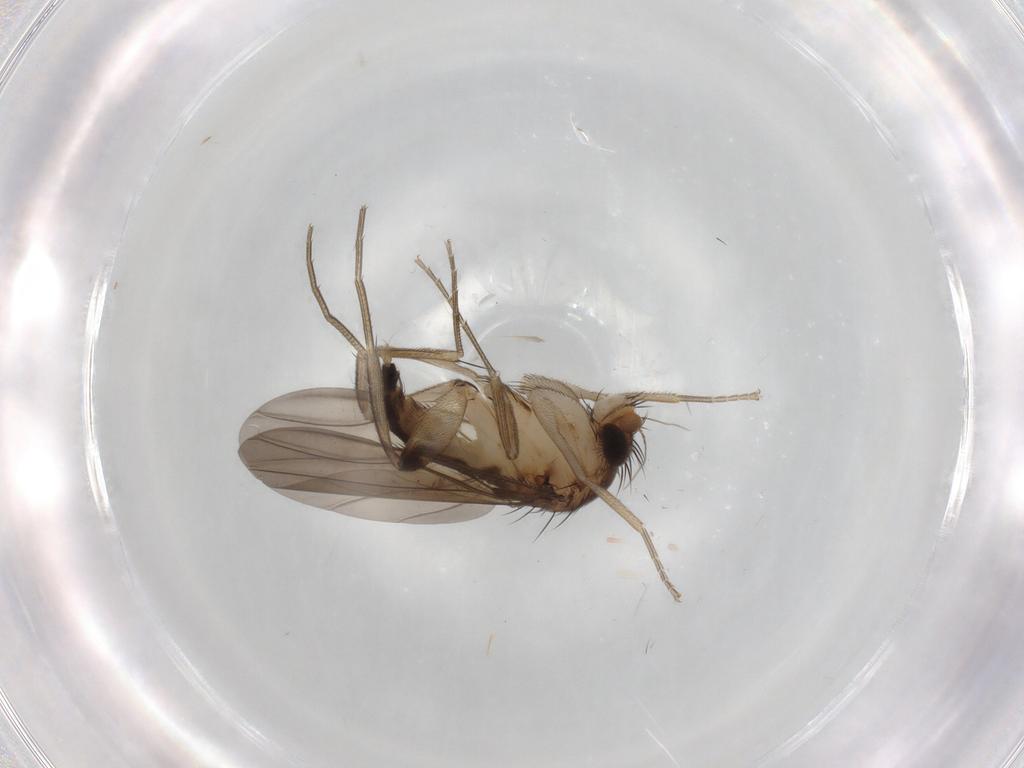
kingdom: Animalia
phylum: Arthropoda
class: Insecta
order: Diptera
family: Phoridae
